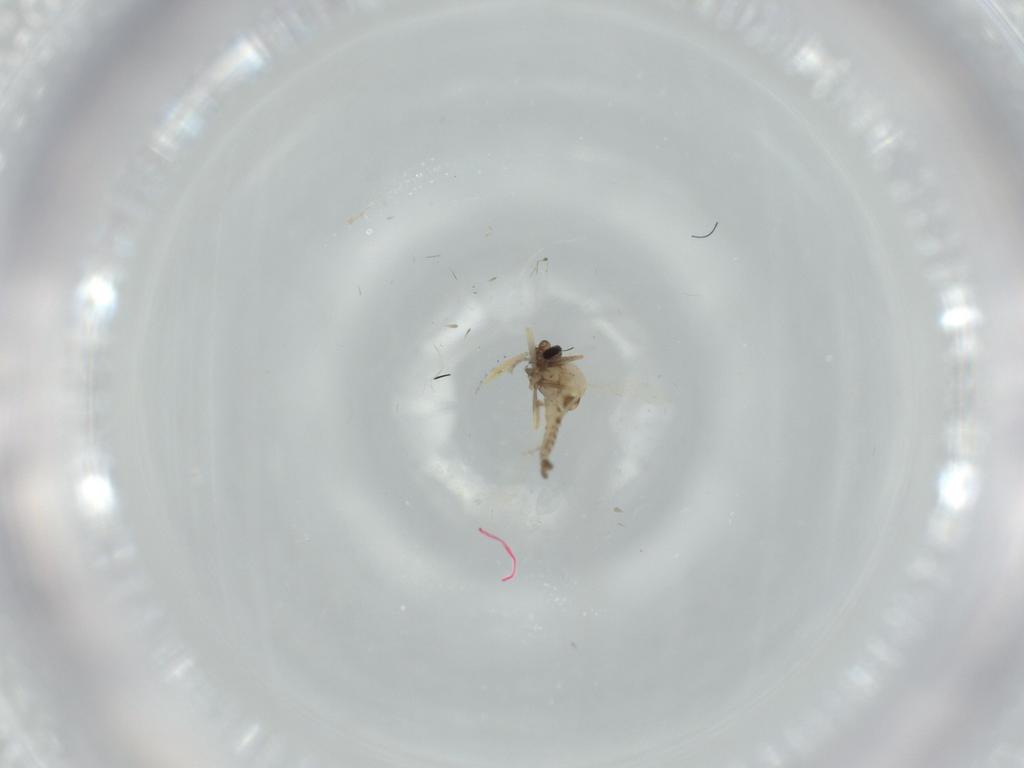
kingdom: Animalia
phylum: Arthropoda
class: Insecta
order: Diptera
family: Ceratopogonidae
